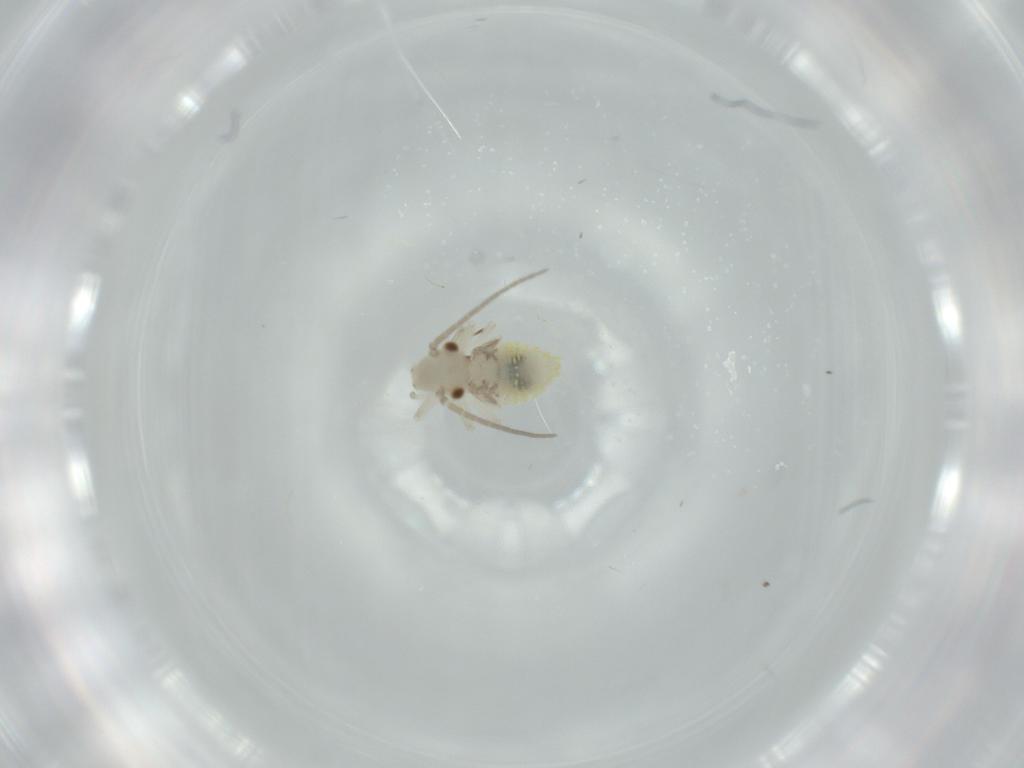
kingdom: Animalia
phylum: Arthropoda
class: Insecta
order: Psocodea
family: Caeciliusidae
